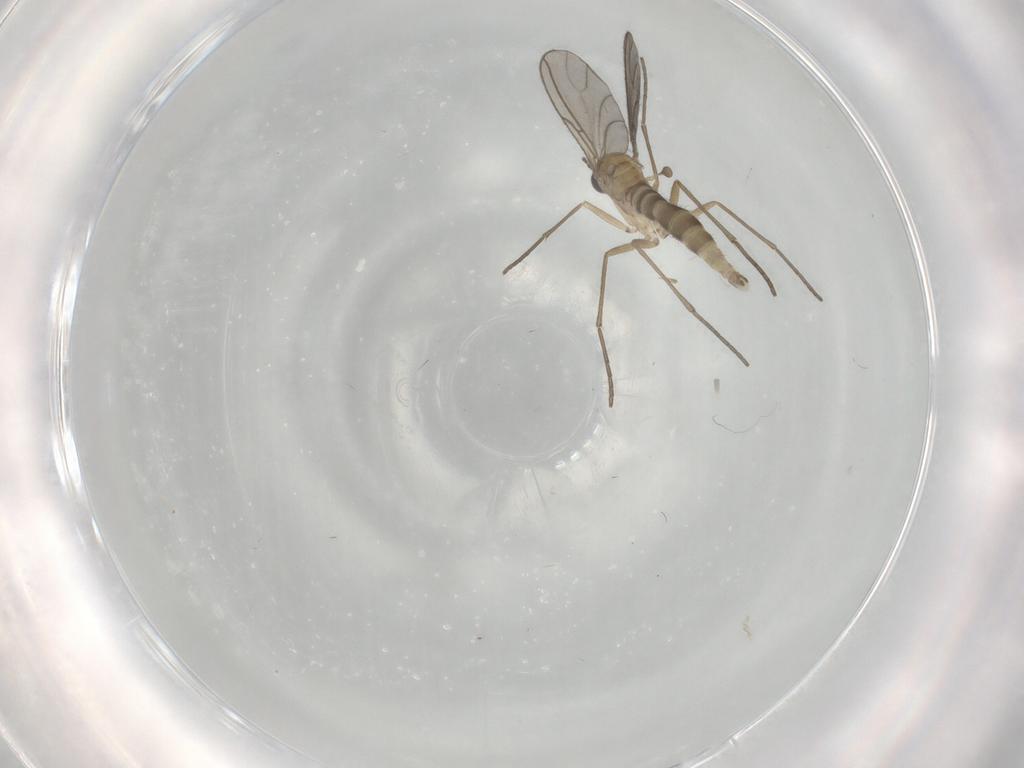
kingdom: Animalia
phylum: Arthropoda
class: Insecta
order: Diptera
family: Sciaridae
